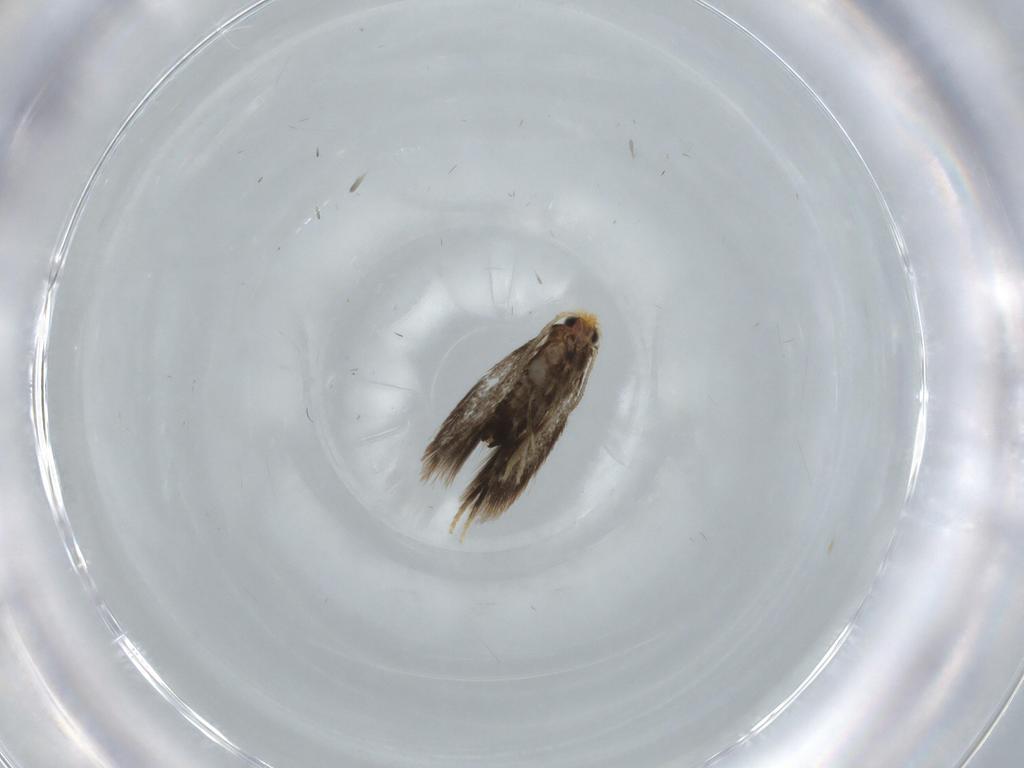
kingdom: Animalia
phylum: Arthropoda
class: Insecta
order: Lepidoptera
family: Nepticulidae
